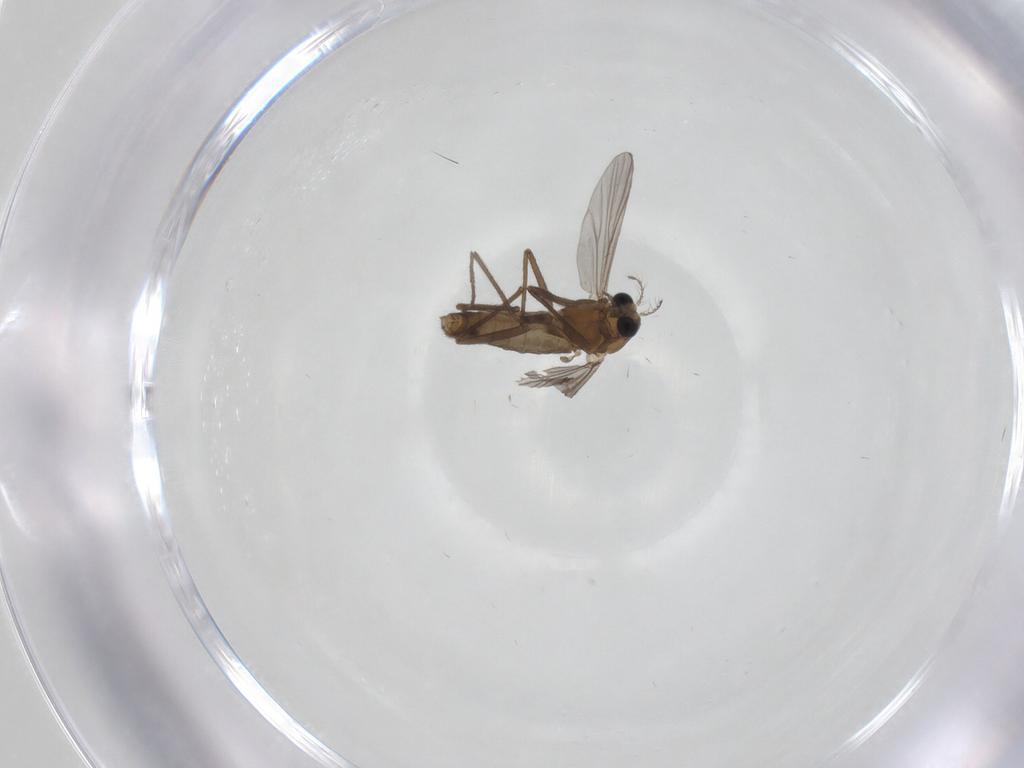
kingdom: Animalia
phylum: Arthropoda
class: Insecta
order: Diptera
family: Chironomidae
